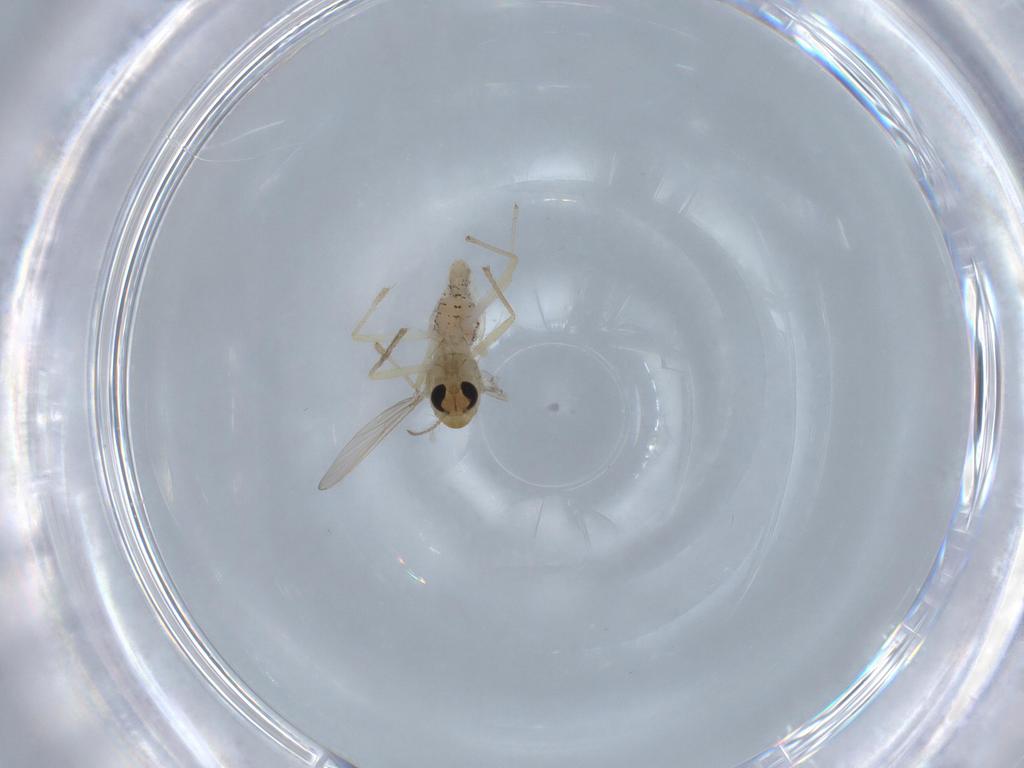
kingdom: Animalia
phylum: Arthropoda
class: Insecta
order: Diptera
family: Chironomidae
